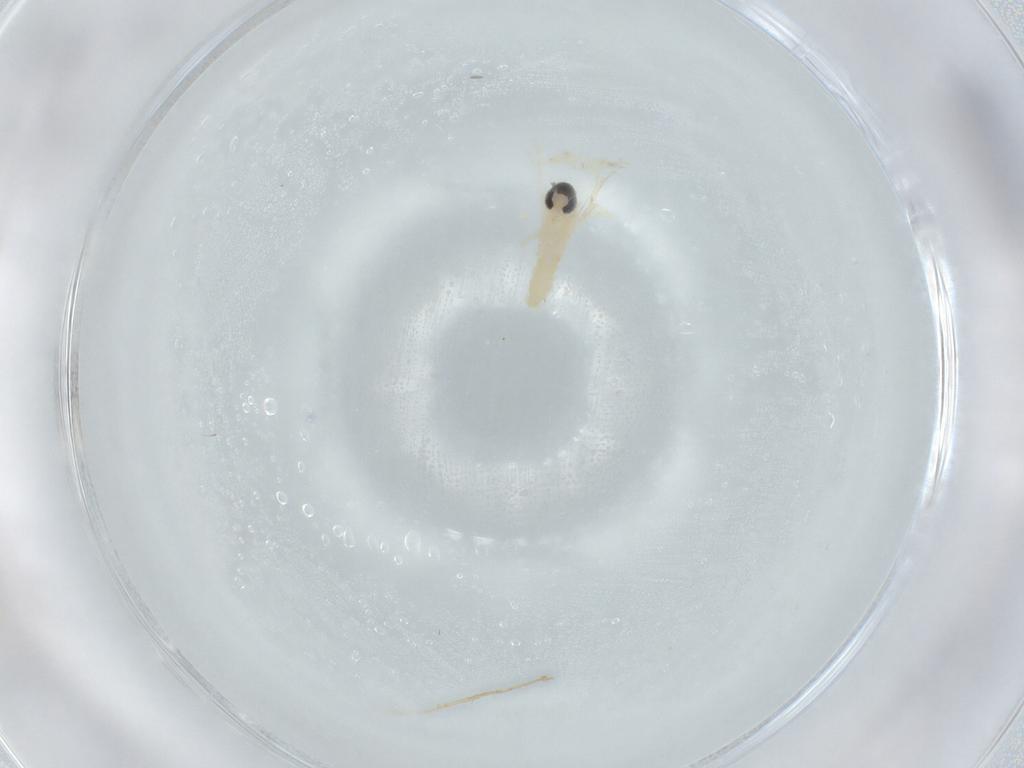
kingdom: Animalia
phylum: Arthropoda
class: Insecta
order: Diptera
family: Cecidomyiidae
